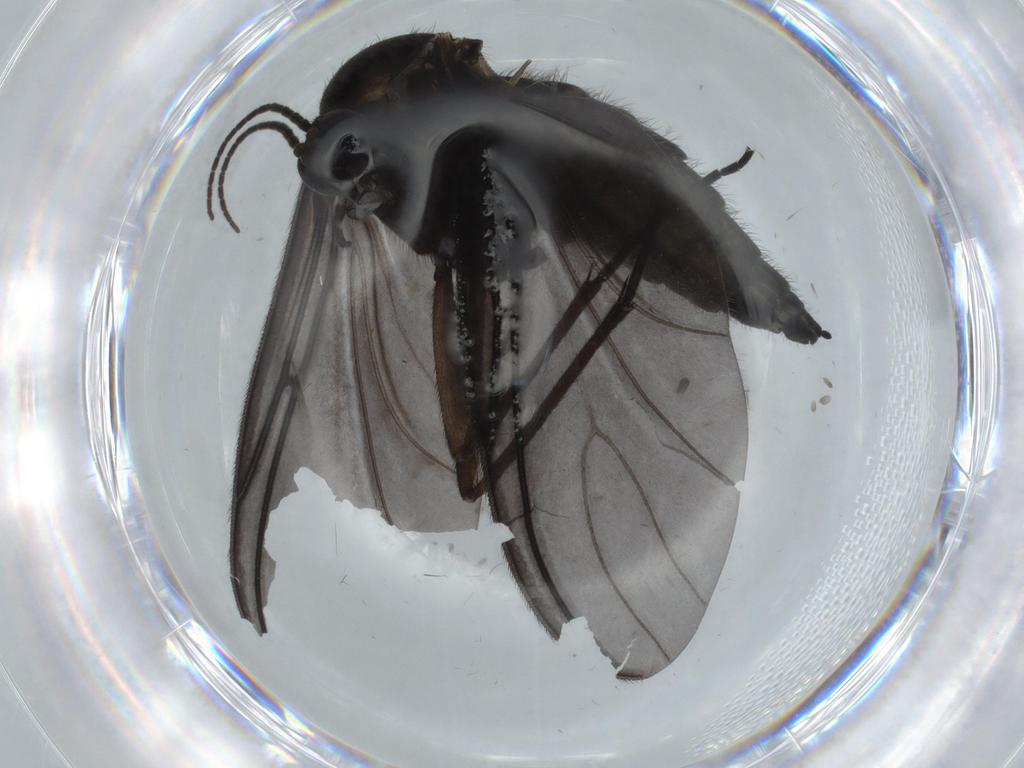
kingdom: Animalia
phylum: Arthropoda
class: Insecta
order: Diptera
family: Sciaridae
